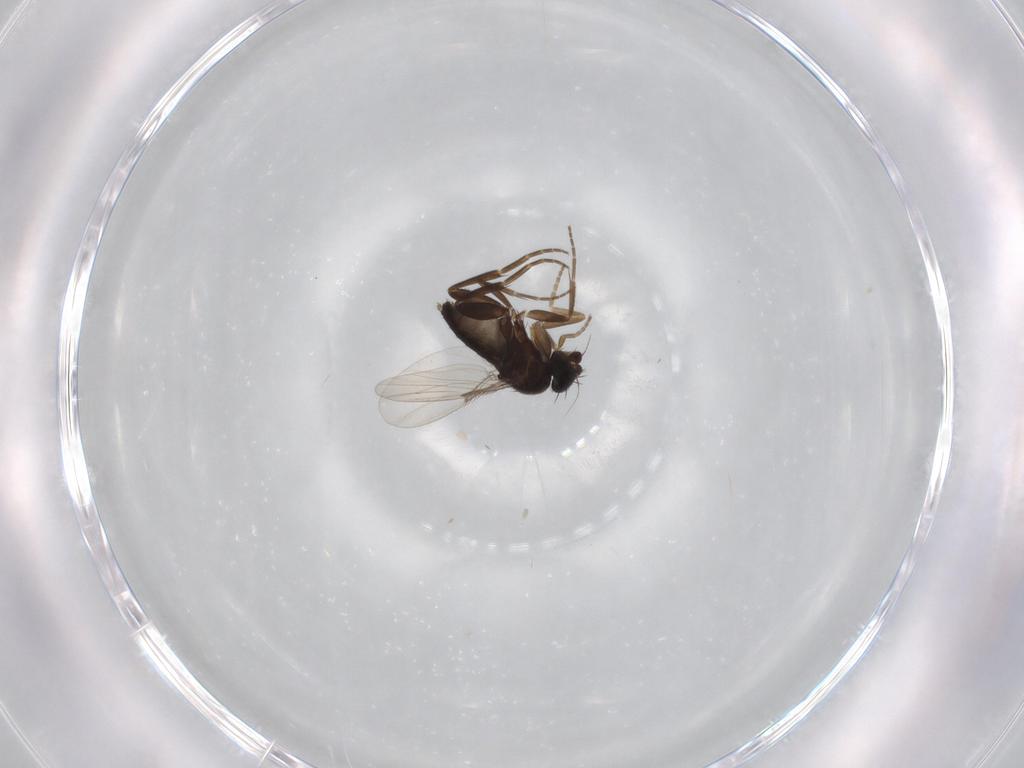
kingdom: Animalia
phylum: Arthropoda
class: Insecta
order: Diptera
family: Phoridae
